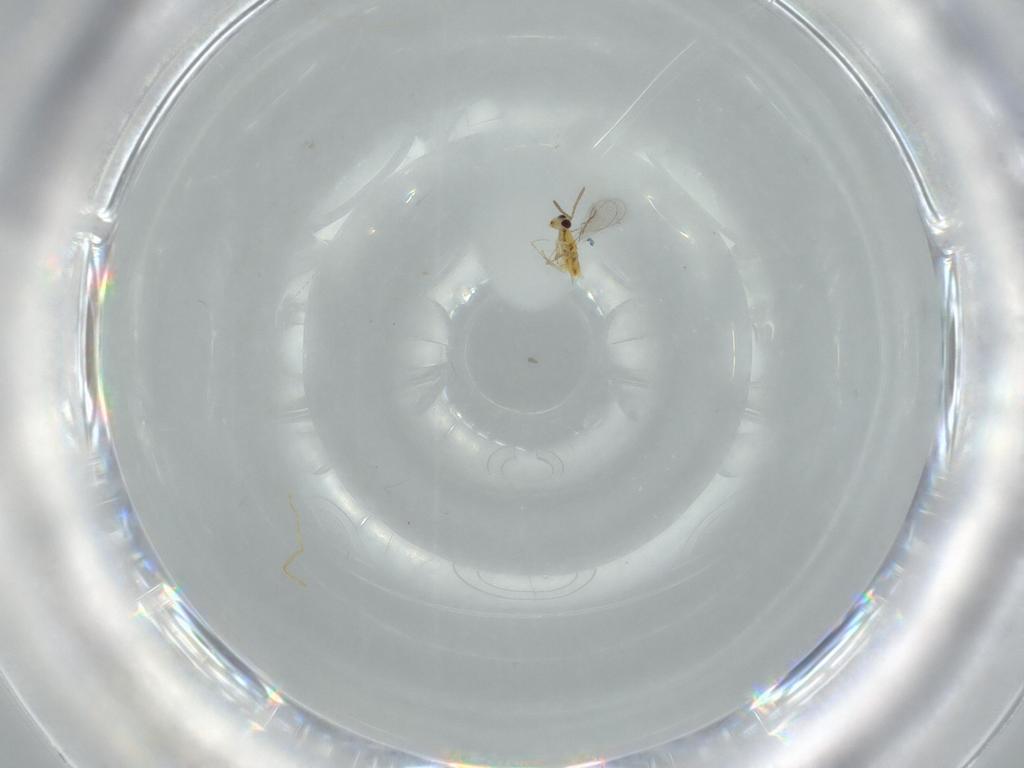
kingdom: Animalia
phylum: Arthropoda
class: Insecta
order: Hymenoptera
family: Aphelinidae
